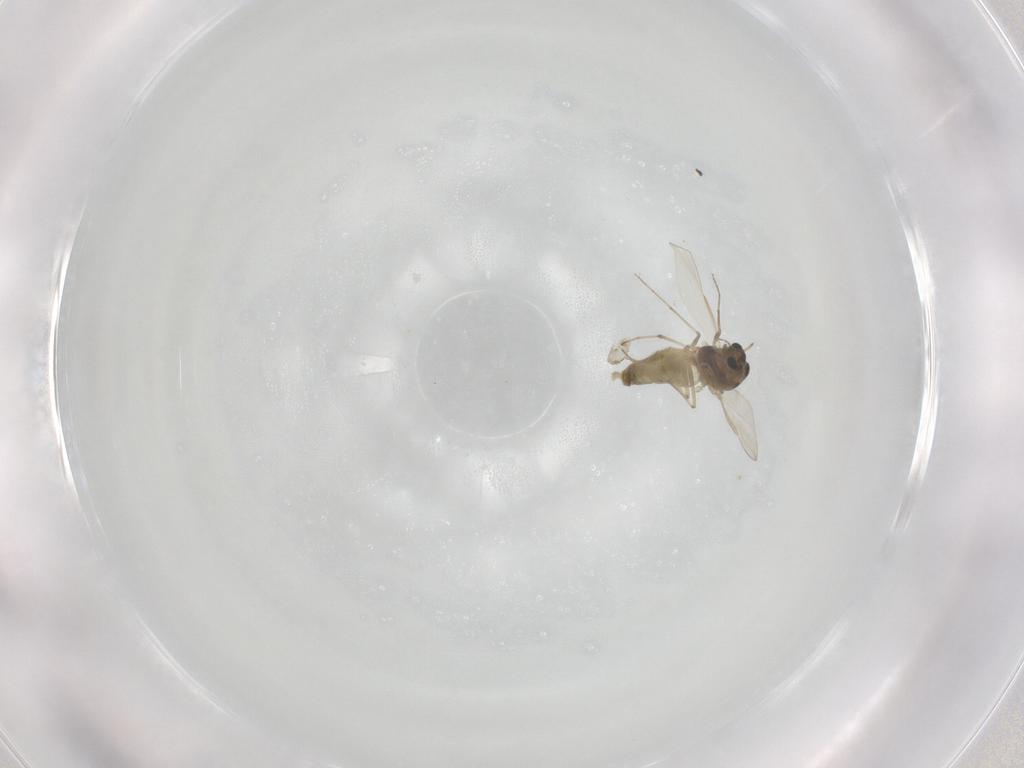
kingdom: Animalia
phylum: Arthropoda
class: Insecta
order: Diptera
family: Chironomidae
